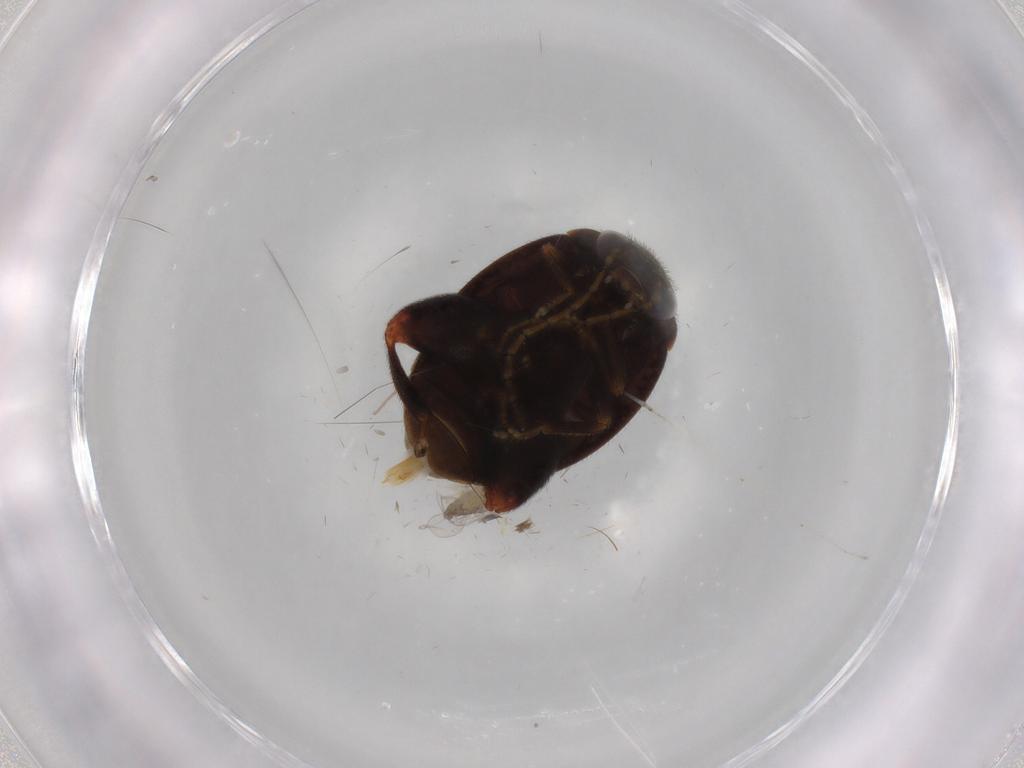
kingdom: Animalia
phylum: Arthropoda
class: Insecta
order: Coleoptera
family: Scirtidae
